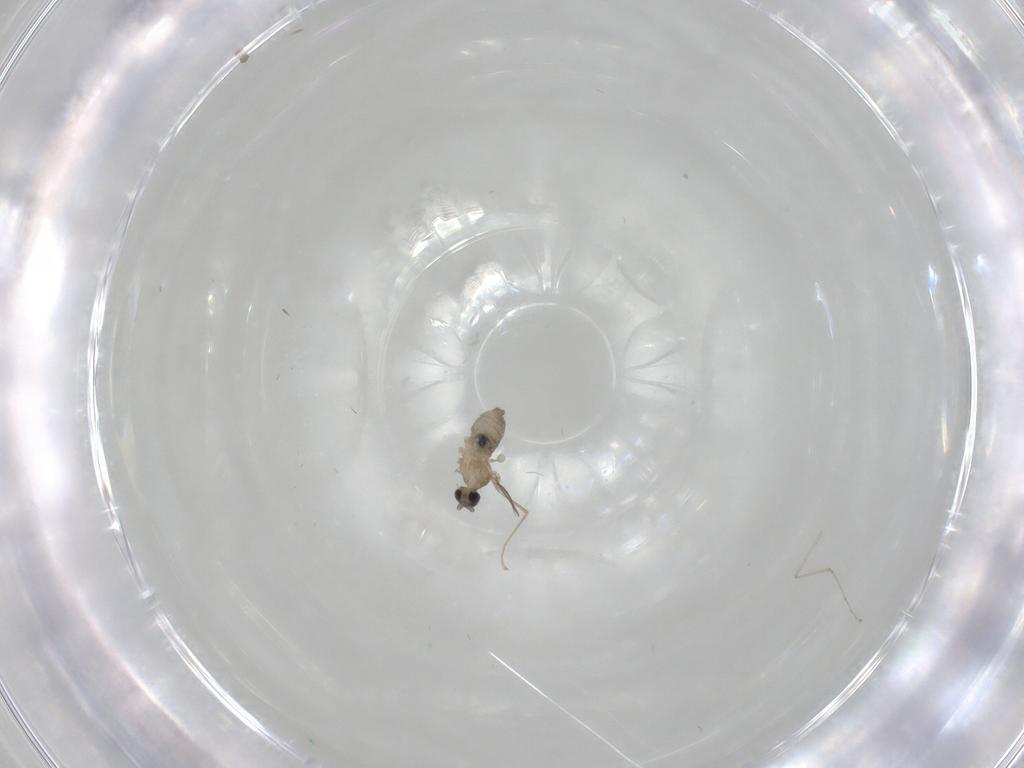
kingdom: Animalia
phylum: Arthropoda
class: Insecta
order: Diptera
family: Cecidomyiidae
